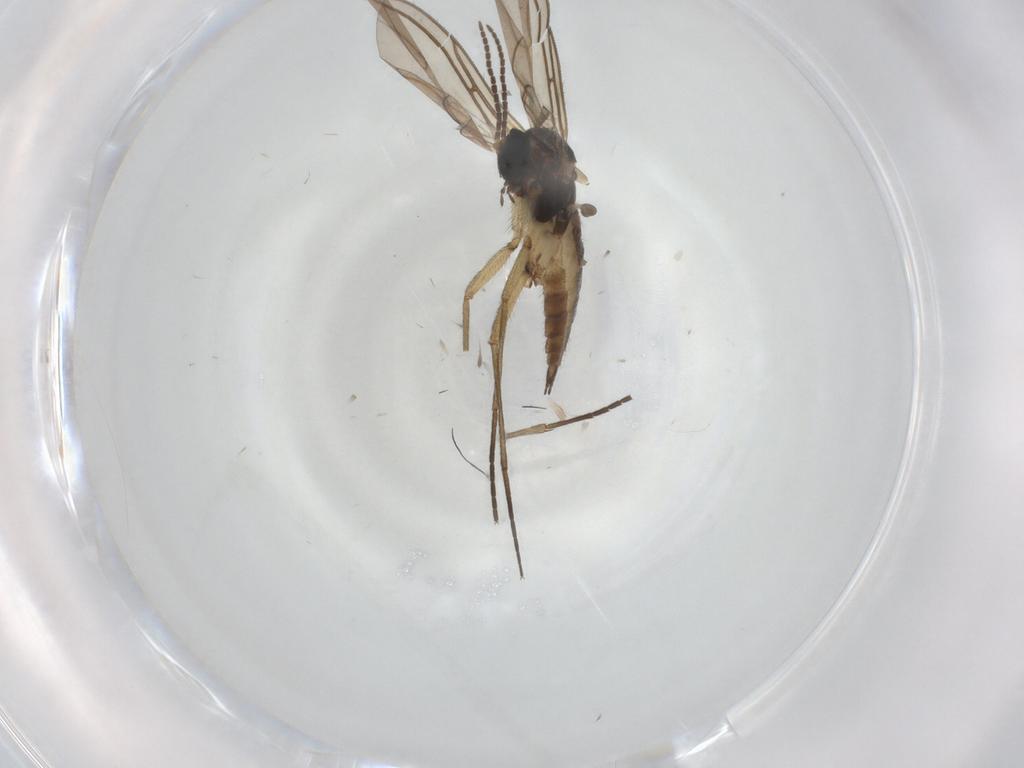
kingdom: Animalia
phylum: Arthropoda
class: Insecta
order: Diptera
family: Sciaridae
